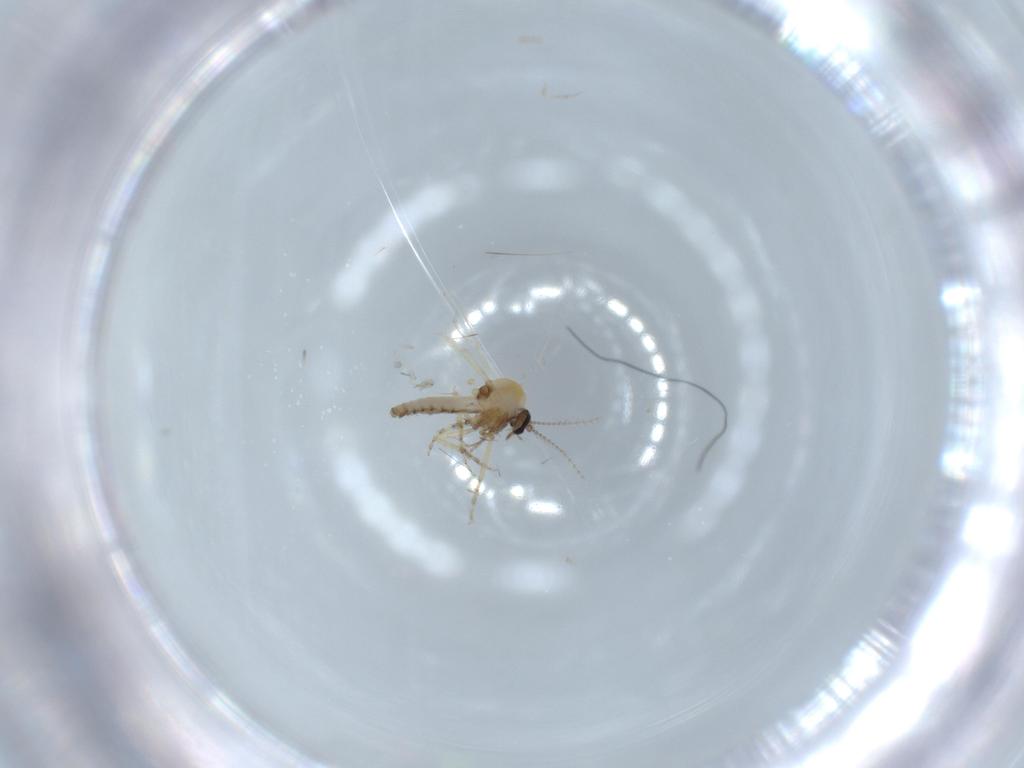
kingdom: Animalia
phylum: Arthropoda
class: Insecta
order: Diptera
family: Ceratopogonidae
